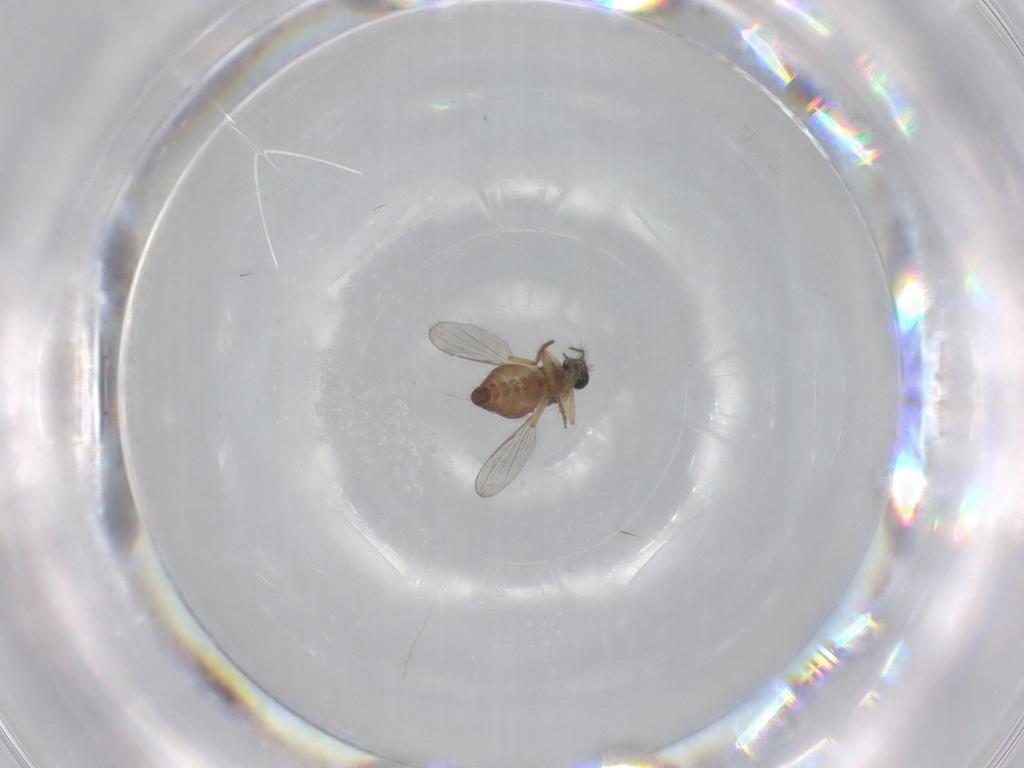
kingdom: Animalia
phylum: Arthropoda
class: Insecta
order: Diptera
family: Ceratopogonidae
